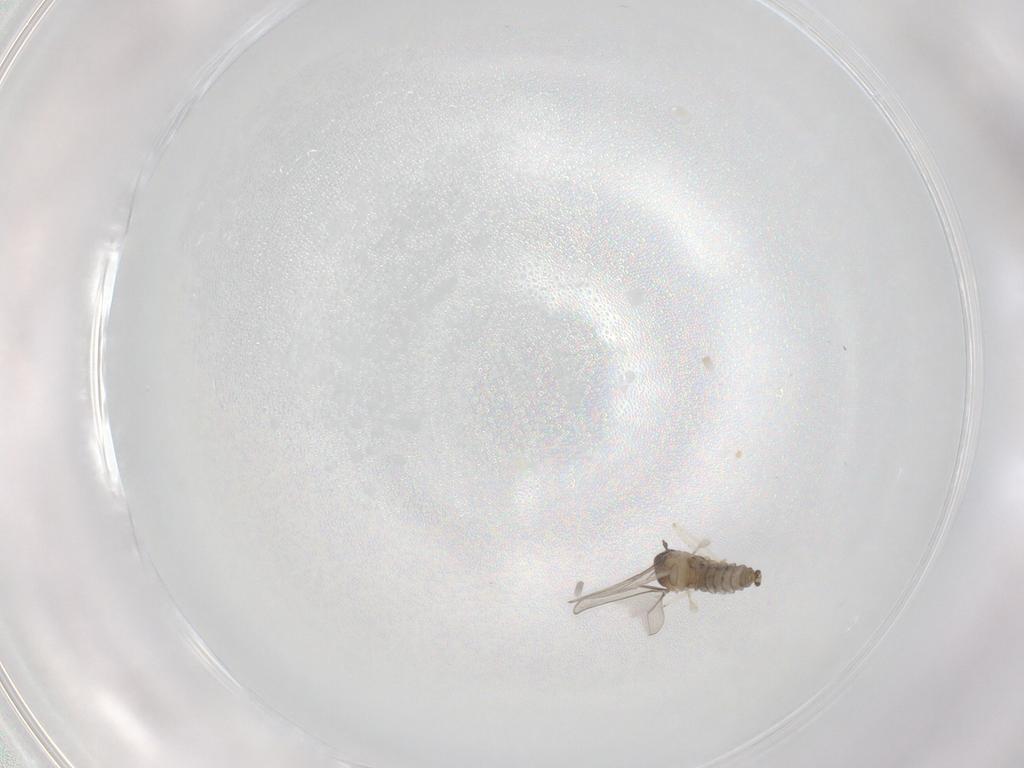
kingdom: Animalia
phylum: Arthropoda
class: Insecta
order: Diptera
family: Cecidomyiidae
